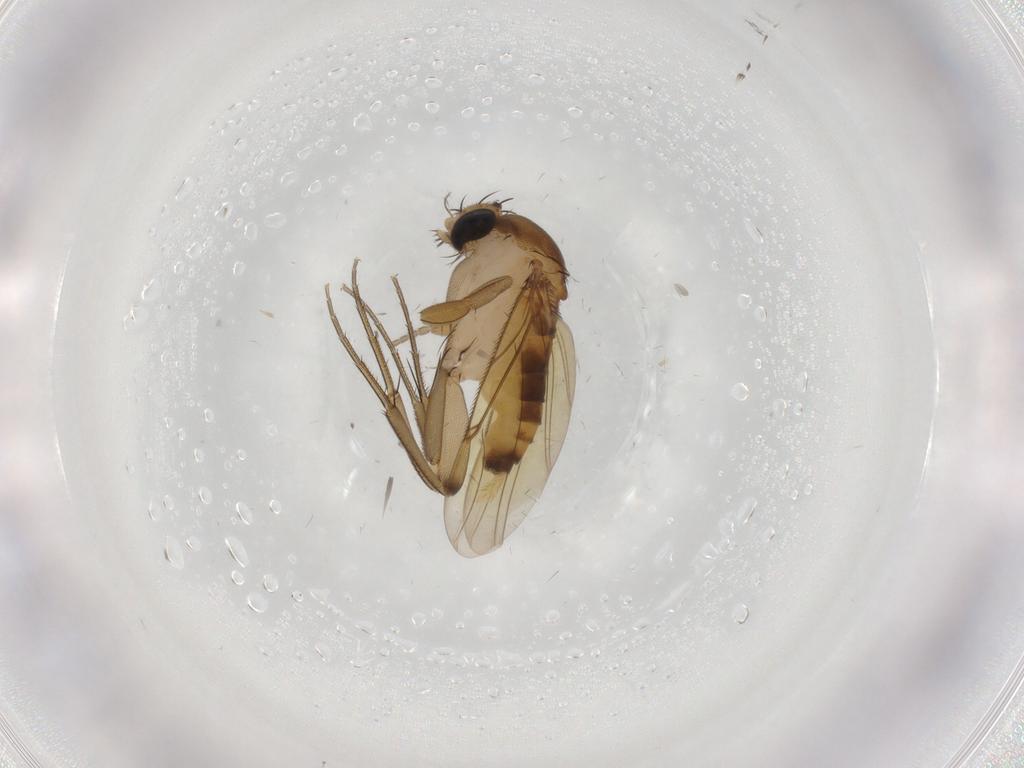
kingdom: Animalia
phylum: Arthropoda
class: Insecta
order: Diptera
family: Phoridae
